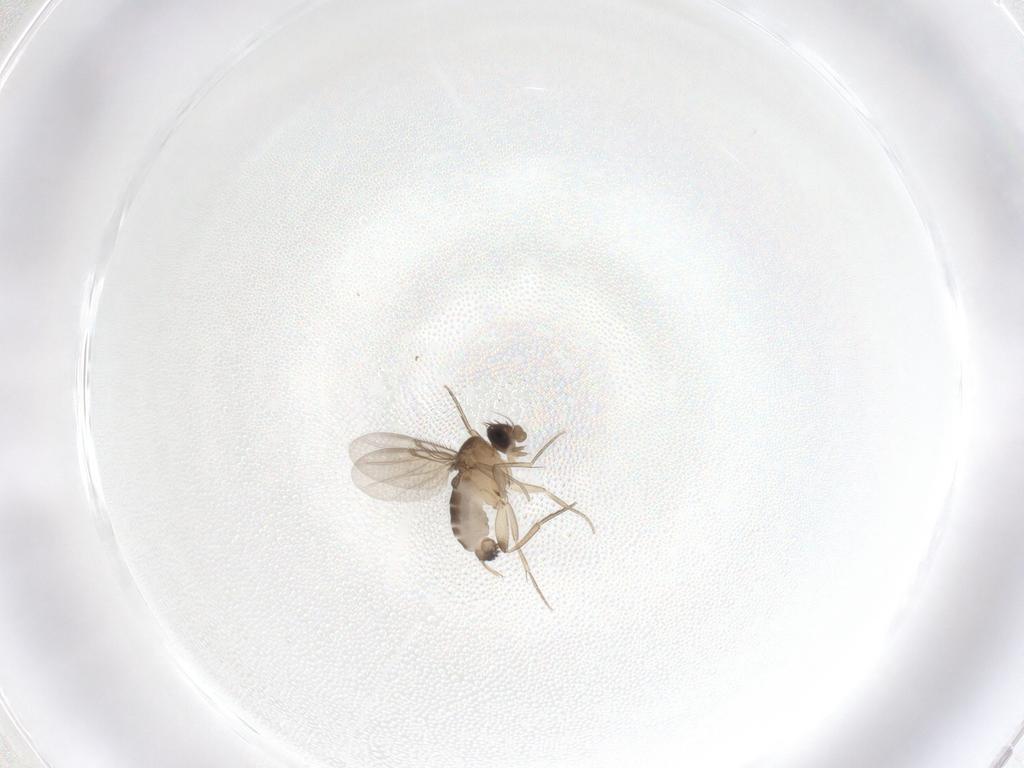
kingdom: Animalia
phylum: Arthropoda
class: Insecta
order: Diptera
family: Phoridae
